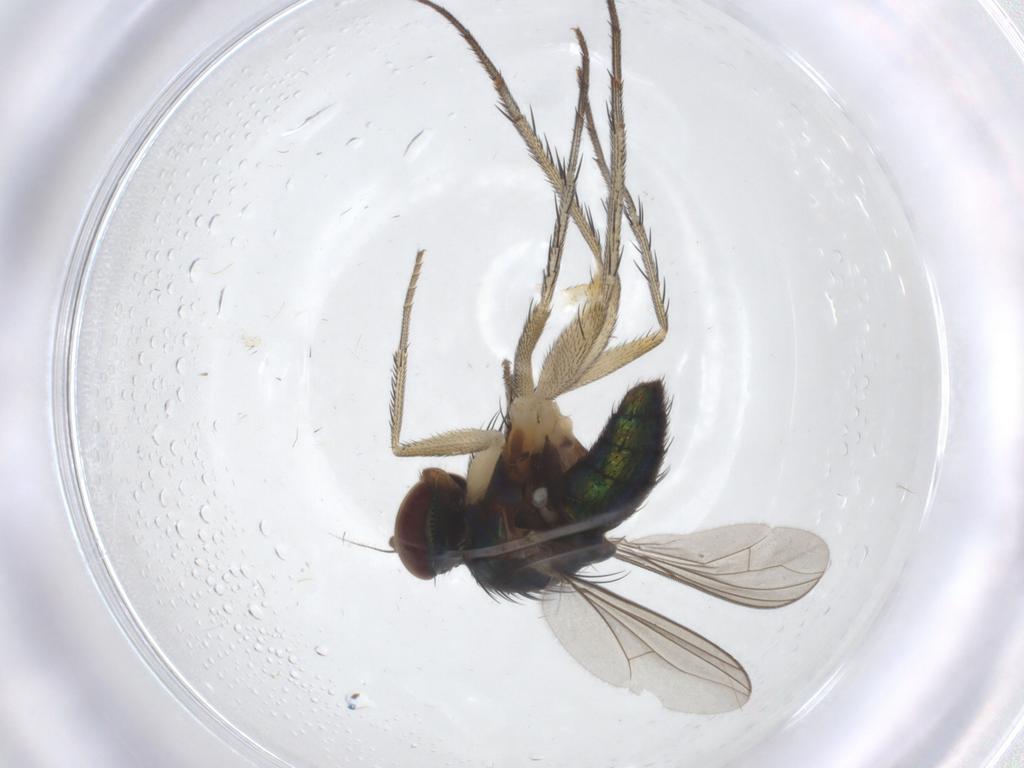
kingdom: Animalia
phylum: Arthropoda
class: Insecta
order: Diptera
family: Dolichopodidae
